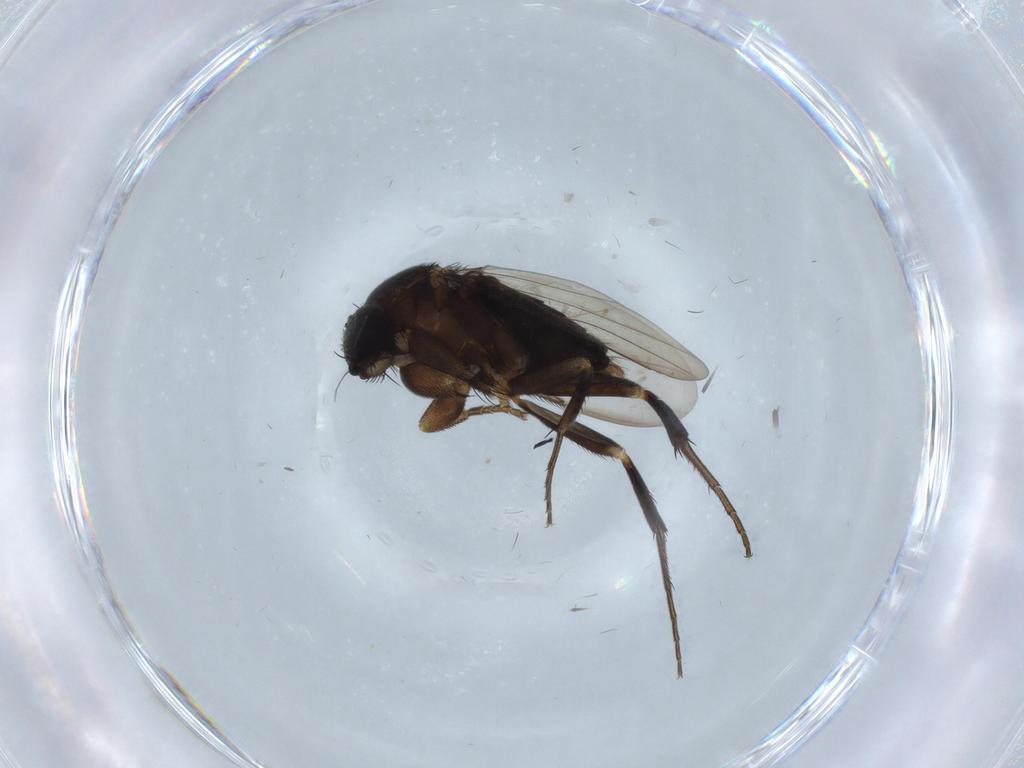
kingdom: Animalia
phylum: Arthropoda
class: Insecta
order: Diptera
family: Phoridae
